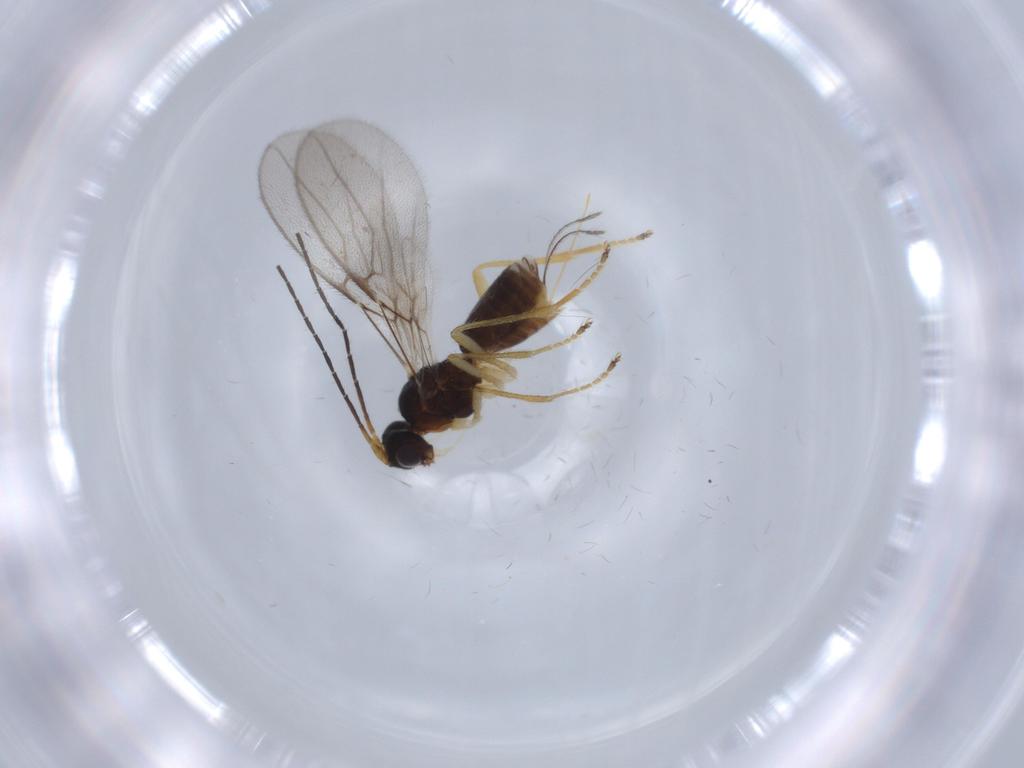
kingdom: Animalia
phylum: Arthropoda
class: Insecta
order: Hymenoptera
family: Braconidae
